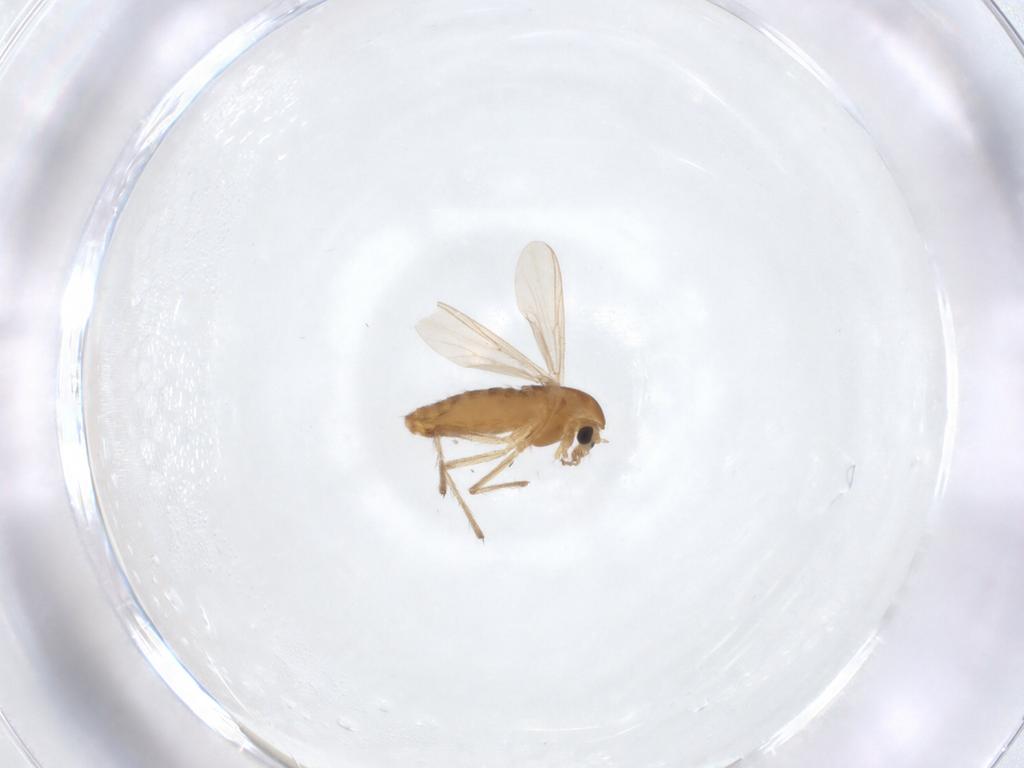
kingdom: Animalia
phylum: Arthropoda
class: Insecta
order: Diptera
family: Chironomidae
